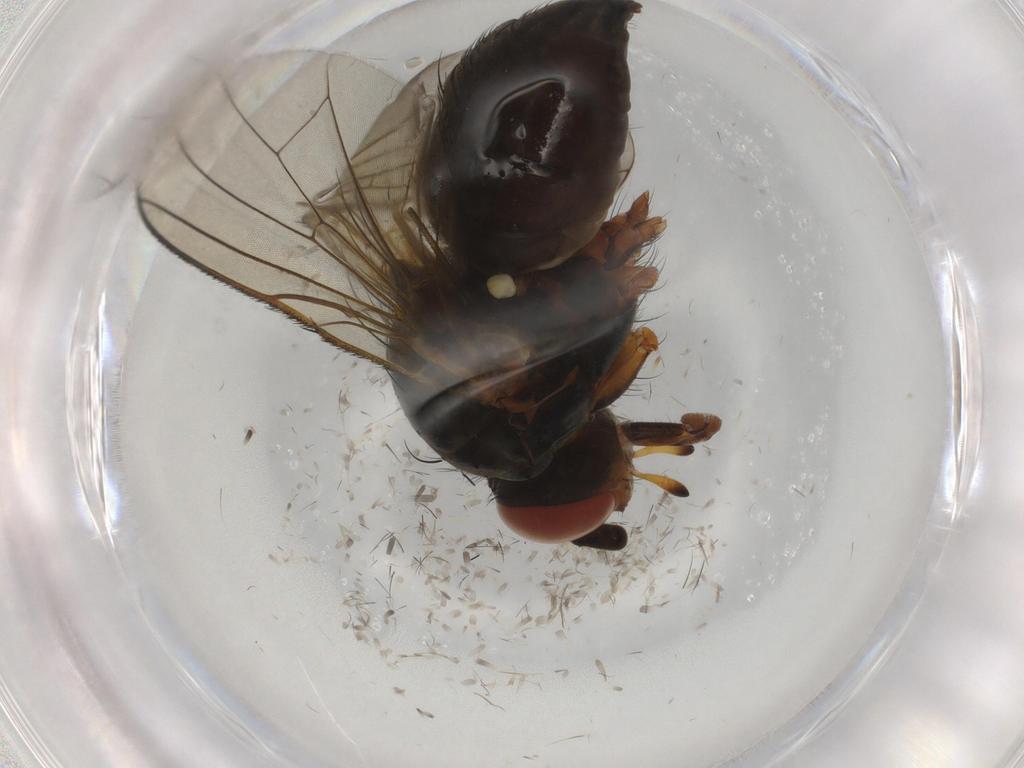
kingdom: Animalia
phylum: Arthropoda
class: Insecta
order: Diptera
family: Anthomyiidae
